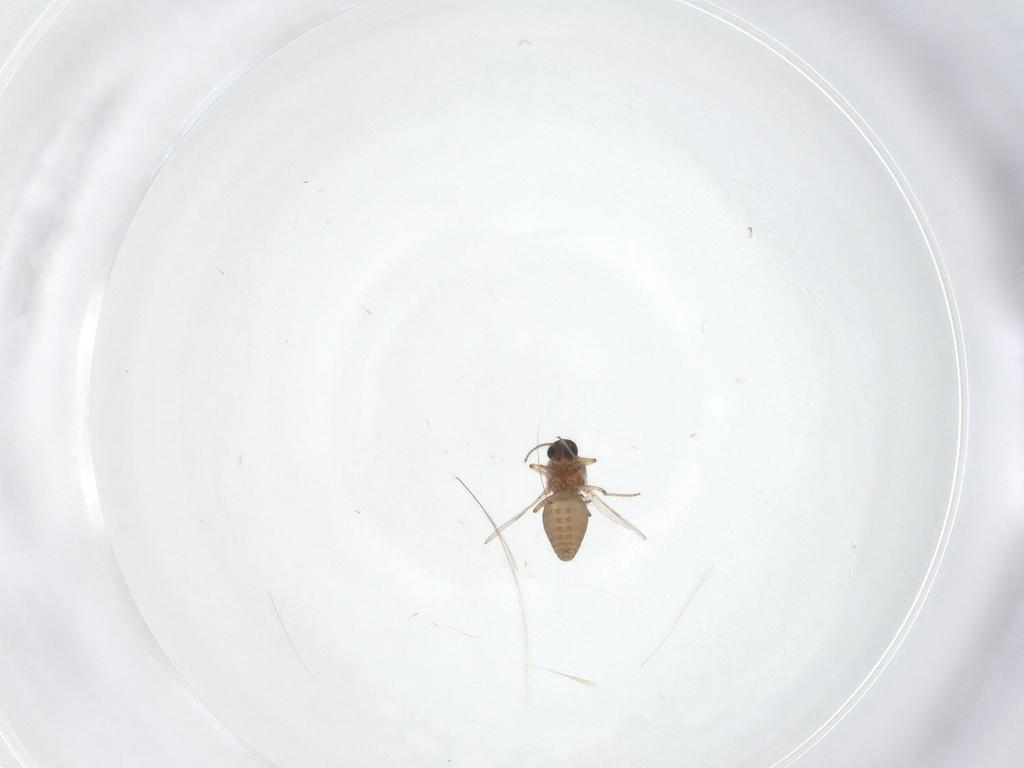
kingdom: Animalia
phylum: Arthropoda
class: Insecta
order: Diptera
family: Ceratopogonidae
